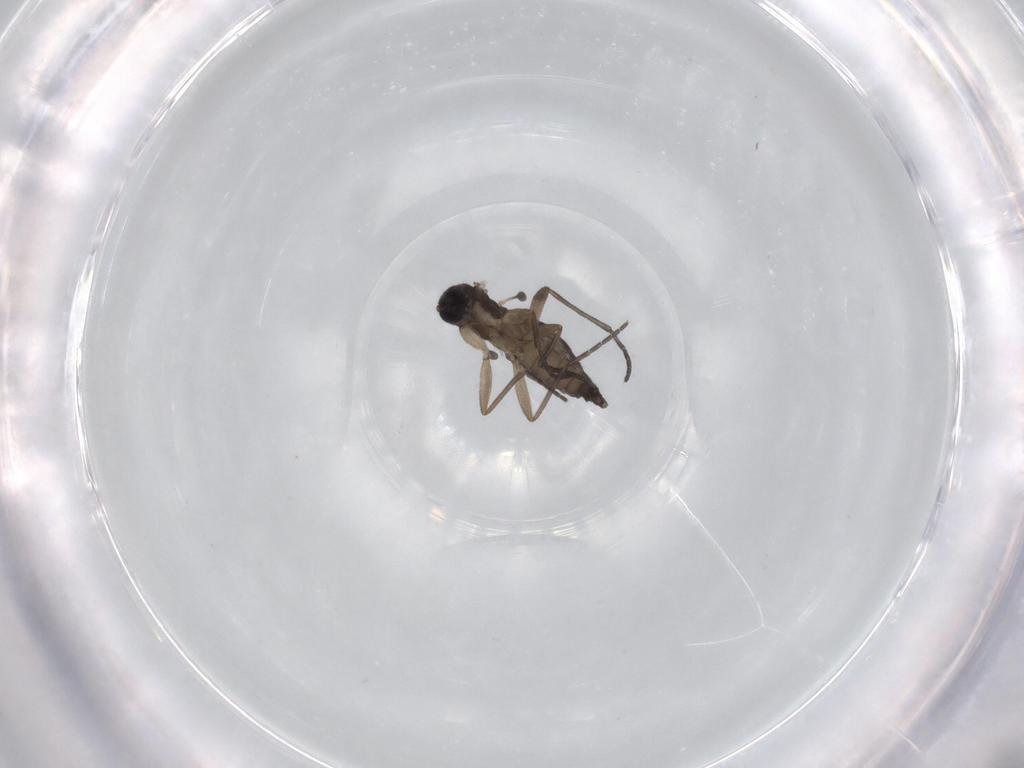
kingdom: Animalia
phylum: Arthropoda
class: Insecta
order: Diptera
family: Sciaridae
